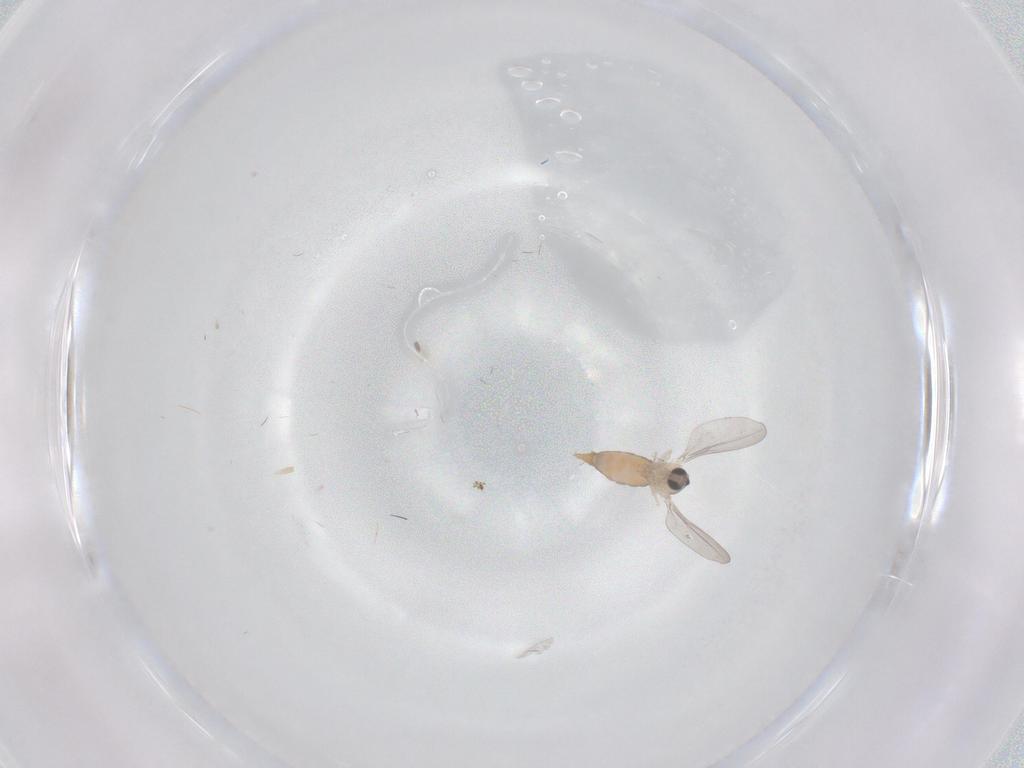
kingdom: Animalia
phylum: Arthropoda
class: Insecta
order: Diptera
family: Cecidomyiidae
